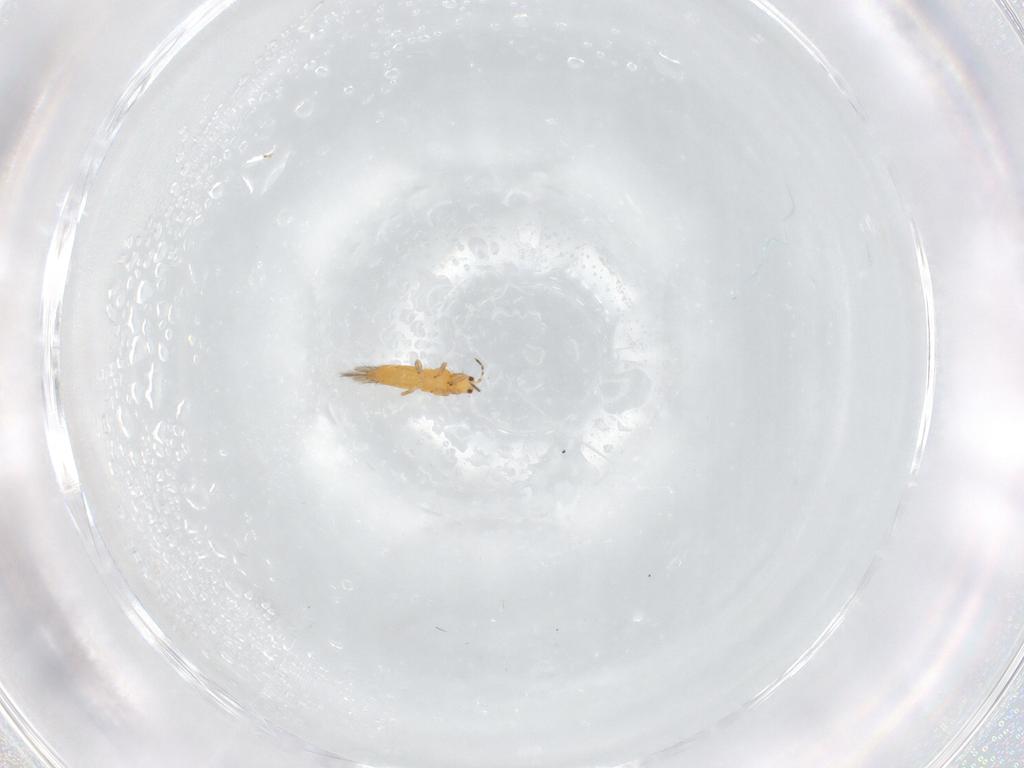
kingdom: Animalia
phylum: Arthropoda
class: Insecta
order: Thysanoptera
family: Thripidae
